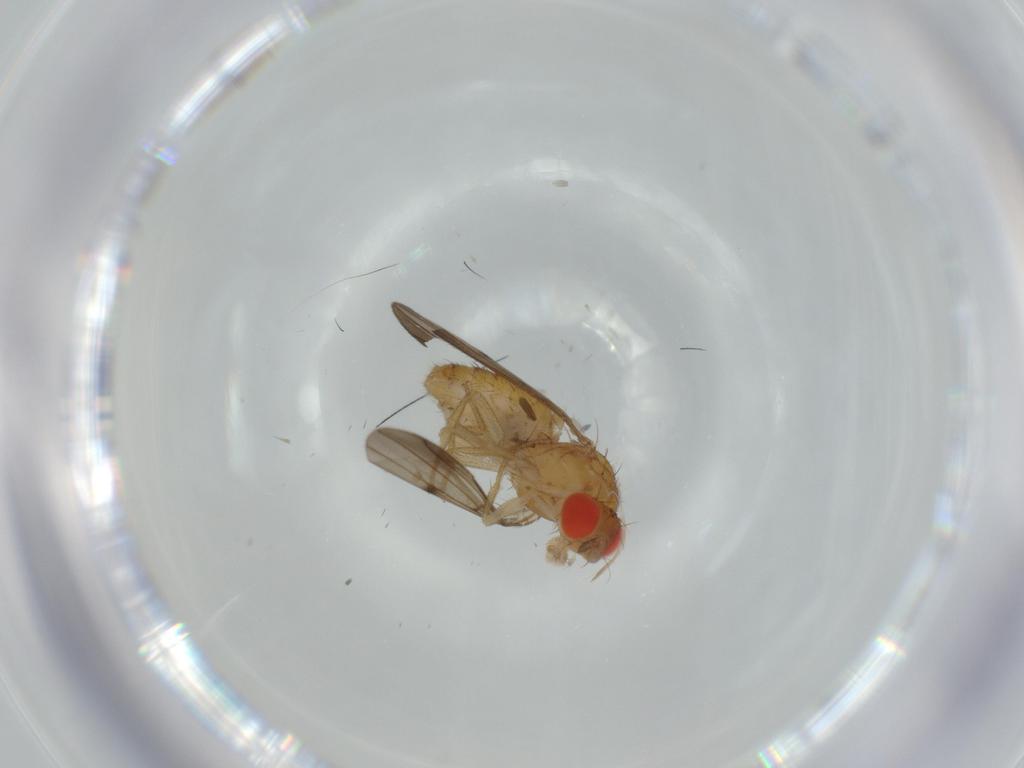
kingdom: Animalia
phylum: Arthropoda
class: Insecta
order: Diptera
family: Drosophilidae
